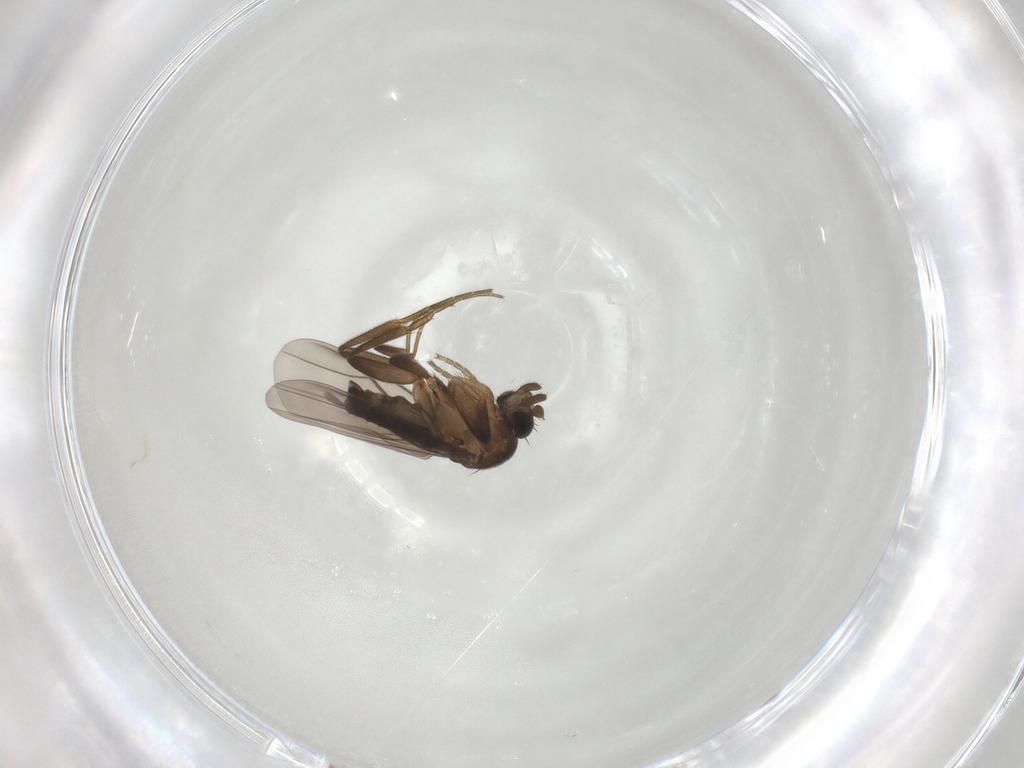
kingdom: Animalia
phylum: Arthropoda
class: Insecta
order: Diptera
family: Phoridae
